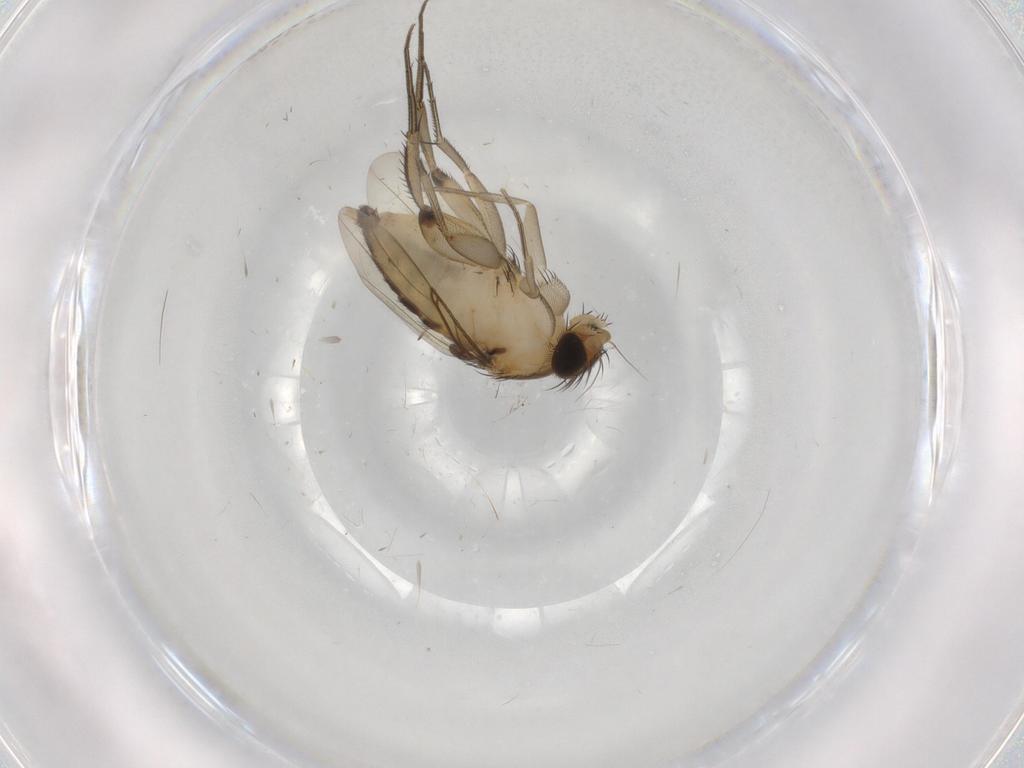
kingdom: Animalia
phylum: Arthropoda
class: Insecta
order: Diptera
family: Phoridae
